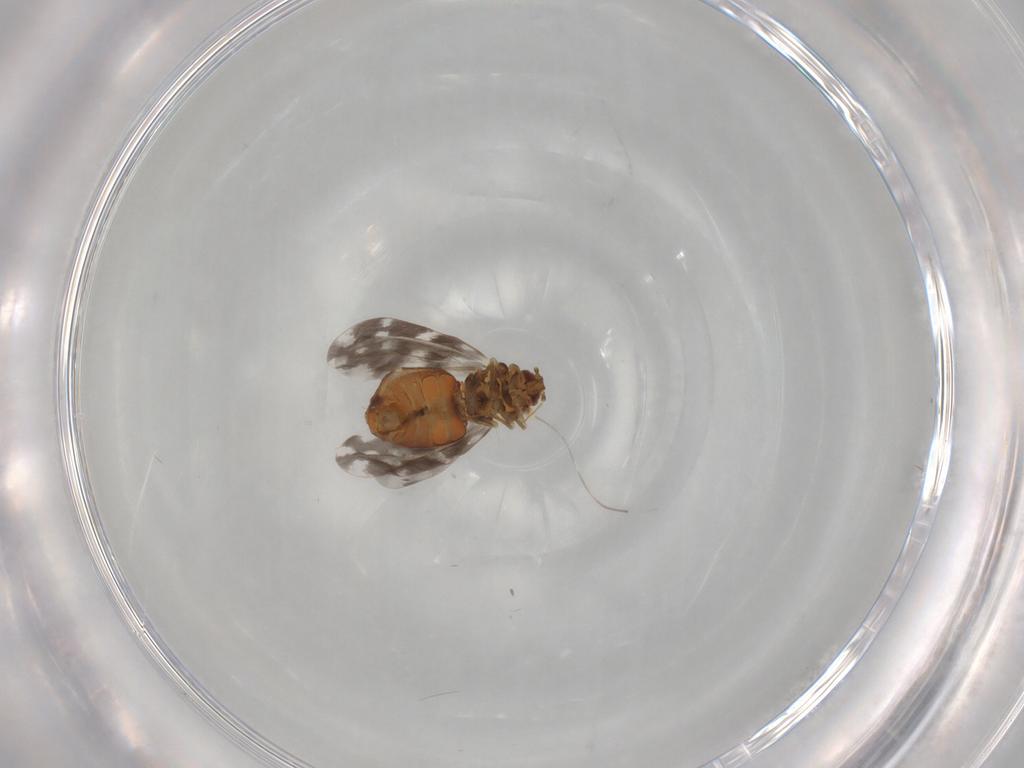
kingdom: Animalia
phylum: Arthropoda
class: Insecta
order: Hemiptera
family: Aleyrodidae
